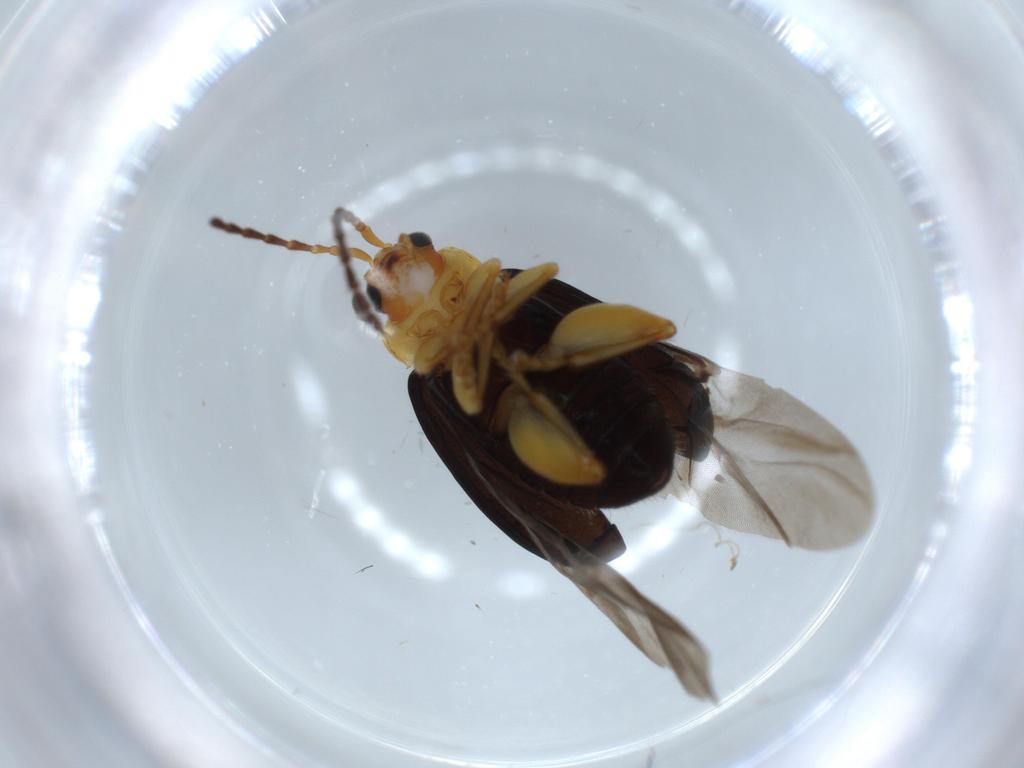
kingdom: Animalia
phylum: Arthropoda
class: Insecta
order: Coleoptera
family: Chrysomelidae
